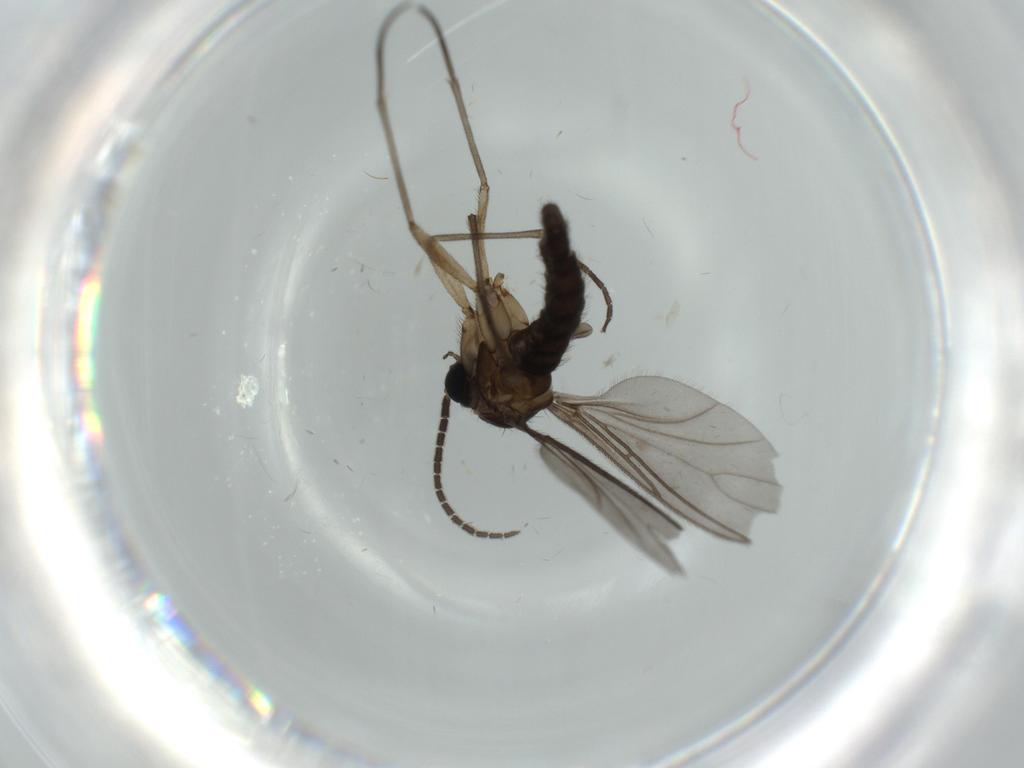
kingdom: Animalia
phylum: Arthropoda
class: Insecta
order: Diptera
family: Sciaridae
